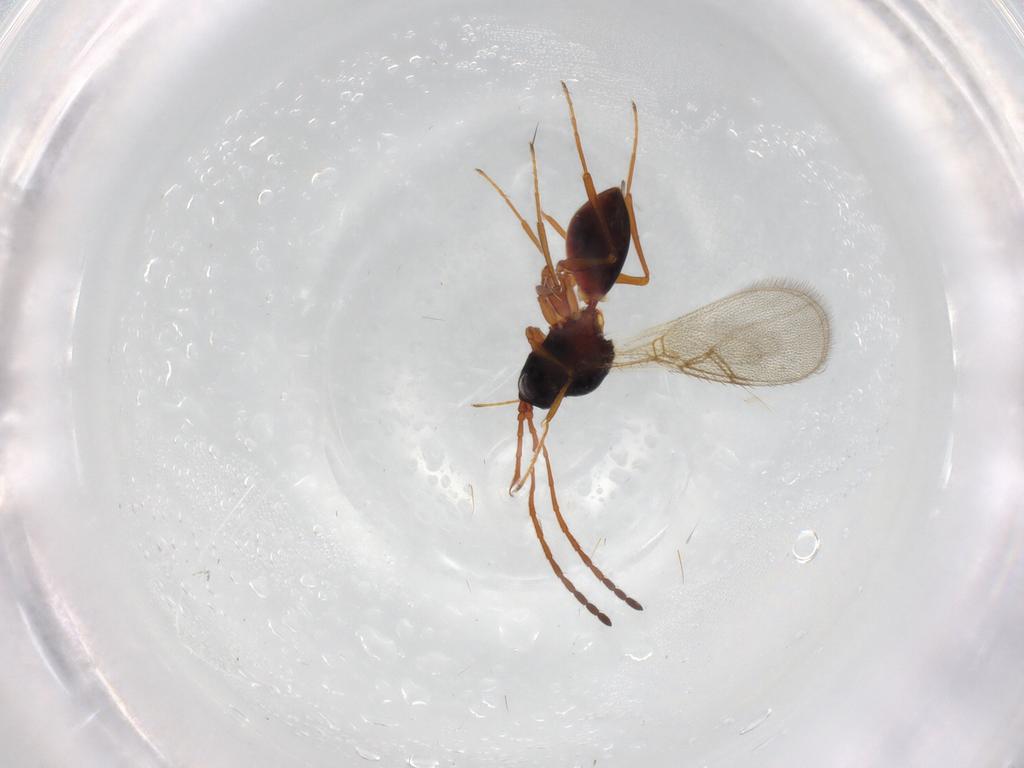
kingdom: Animalia
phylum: Arthropoda
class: Insecta
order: Hymenoptera
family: Figitidae
